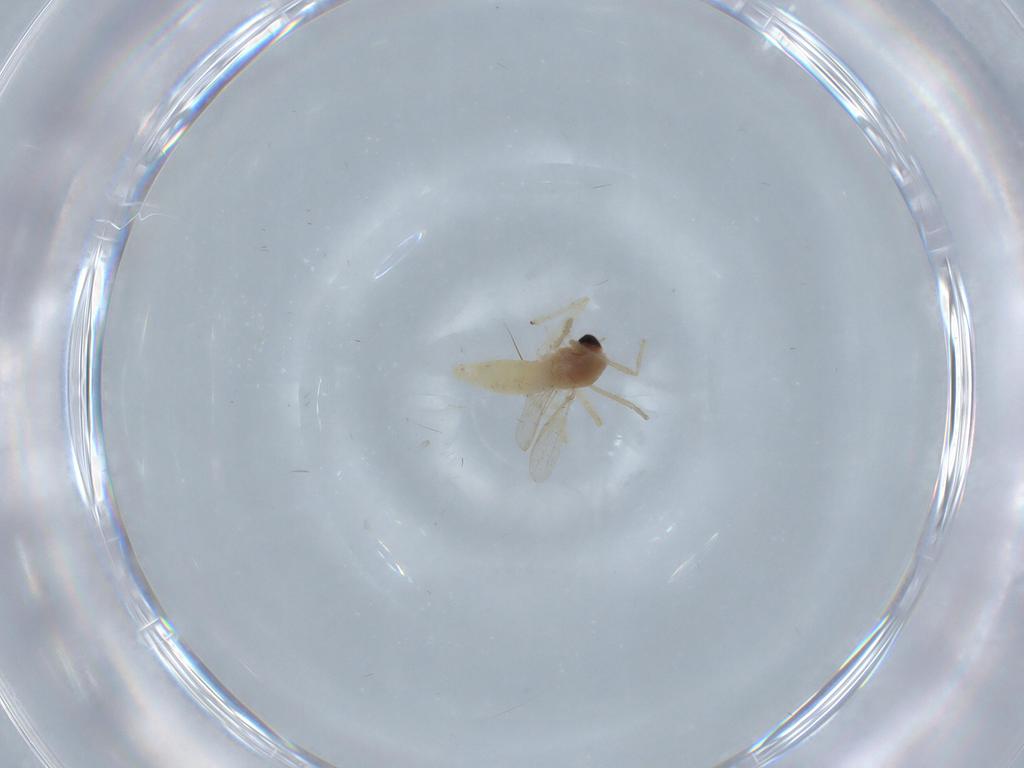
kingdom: Animalia
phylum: Arthropoda
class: Insecta
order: Diptera
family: Chironomidae
